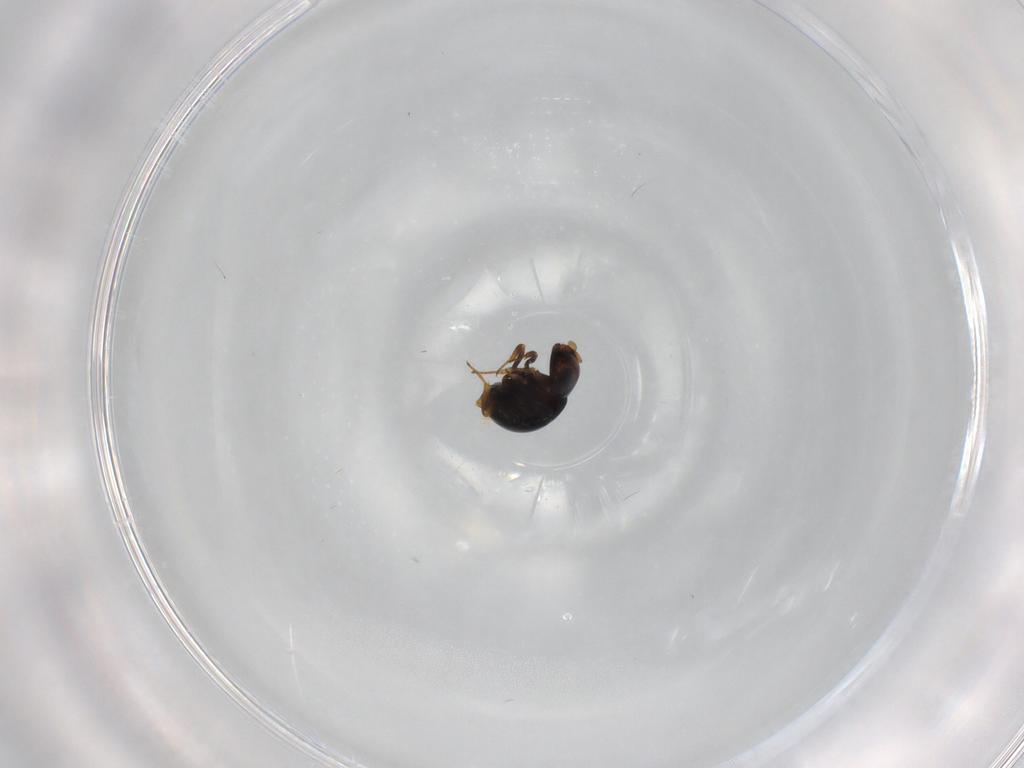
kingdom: Animalia
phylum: Arthropoda
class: Insecta
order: Hymenoptera
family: Scelionidae
